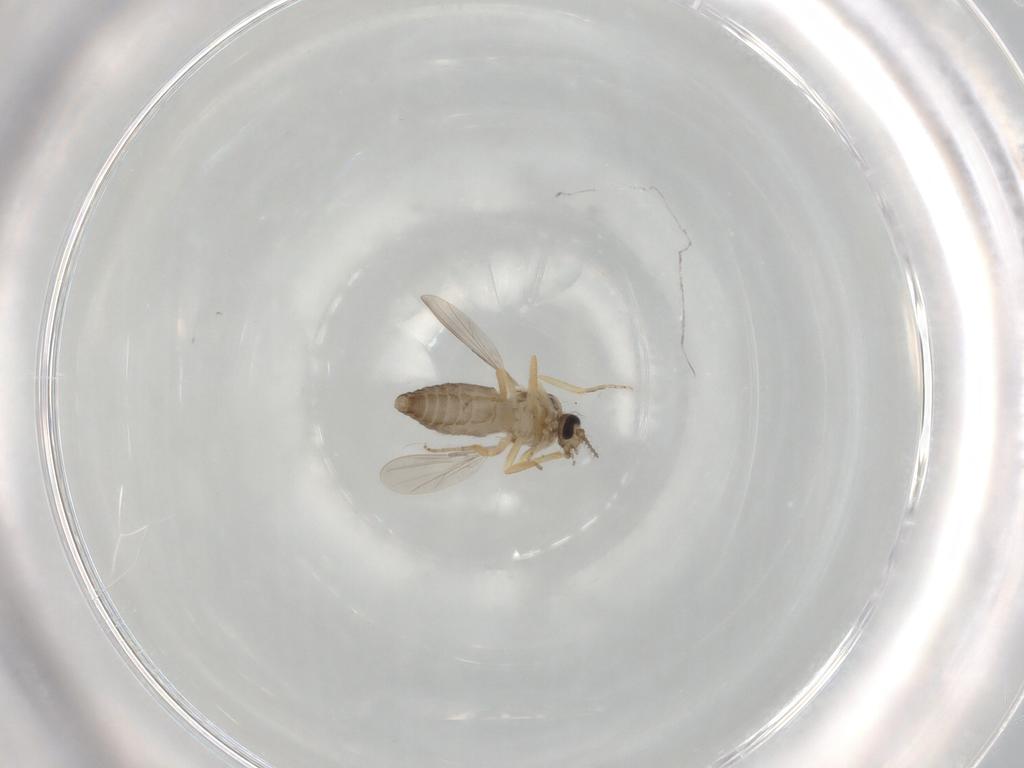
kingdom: Animalia
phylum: Arthropoda
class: Insecta
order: Diptera
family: Ceratopogonidae
